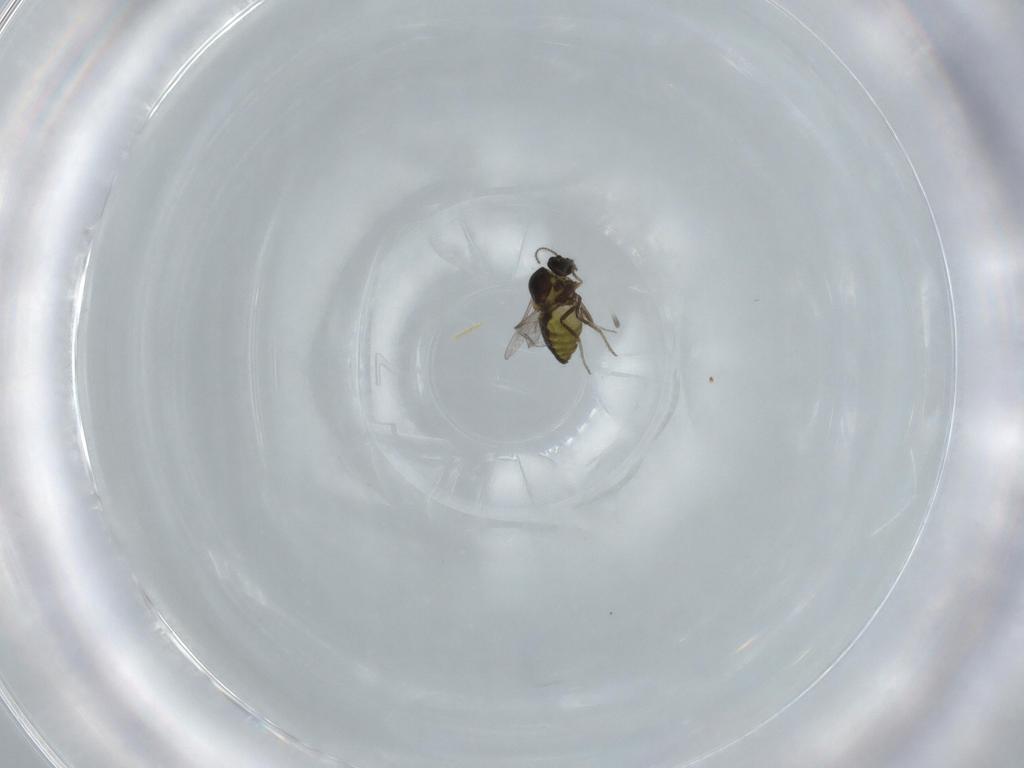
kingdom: Animalia
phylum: Arthropoda
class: Insecta
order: Diptera
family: Ceratopogonidae
